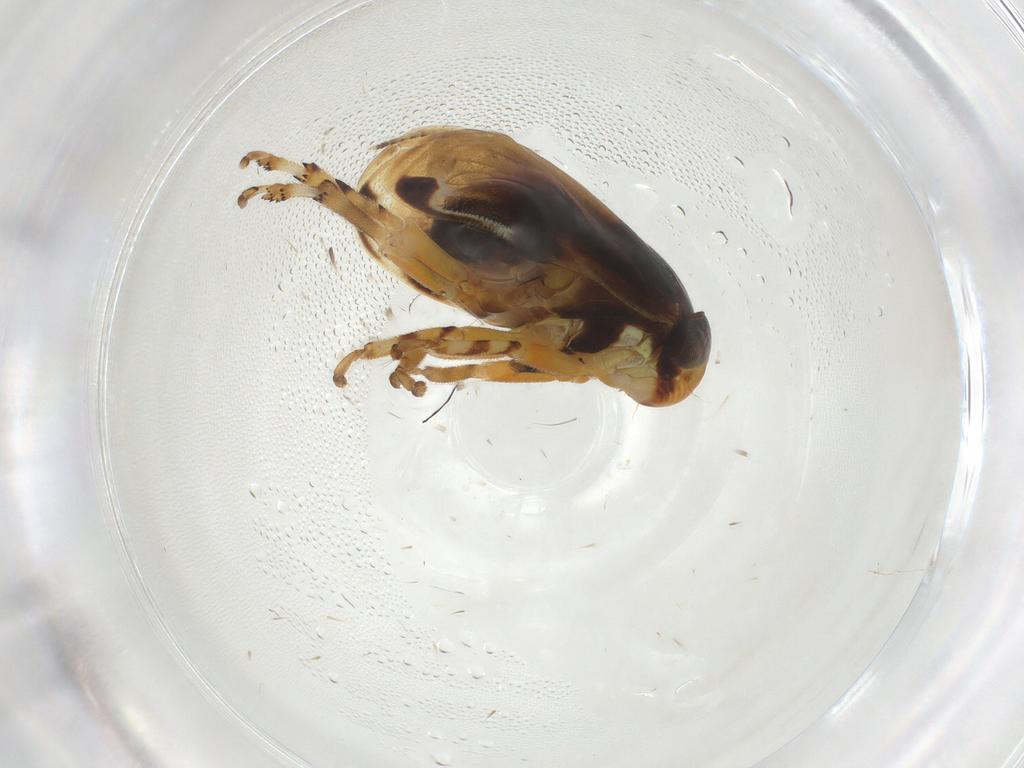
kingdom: Animalia
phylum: Arthropoda
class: Insecta
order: Hemiptera
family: Clastopteridae
